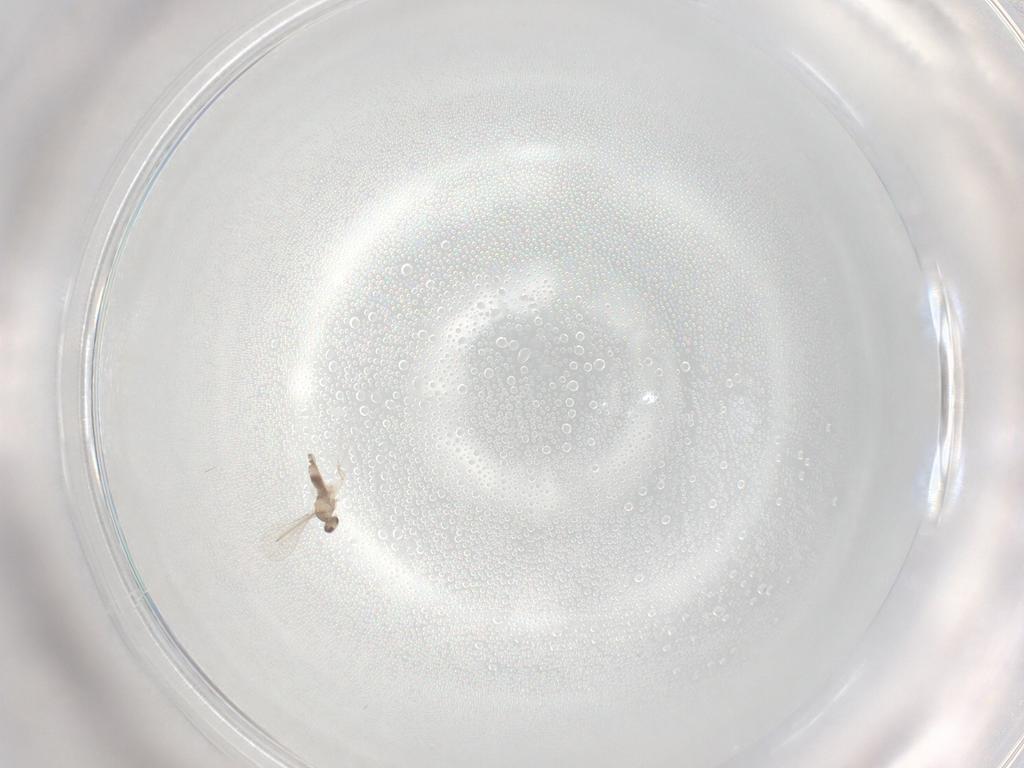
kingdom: Animalia
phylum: Arthropoda
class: Insecta
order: Diptera
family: Cecidomyiidae
